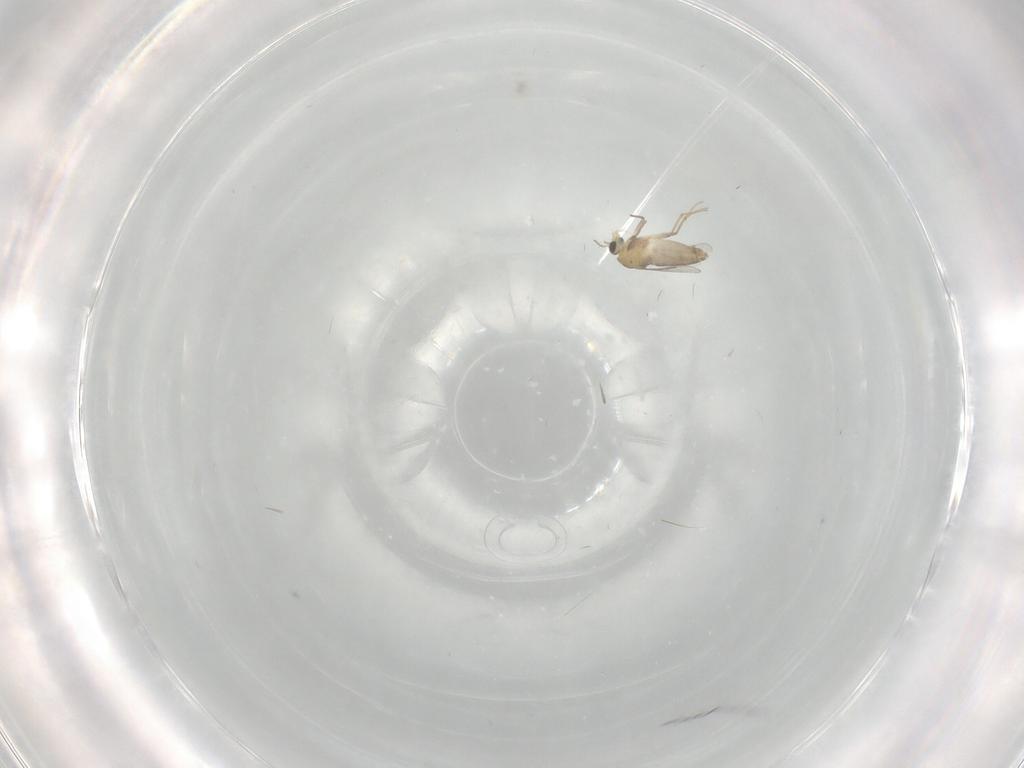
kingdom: Animalia
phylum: Arthropoda
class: Insecta
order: Diptera
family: Chironomidae
